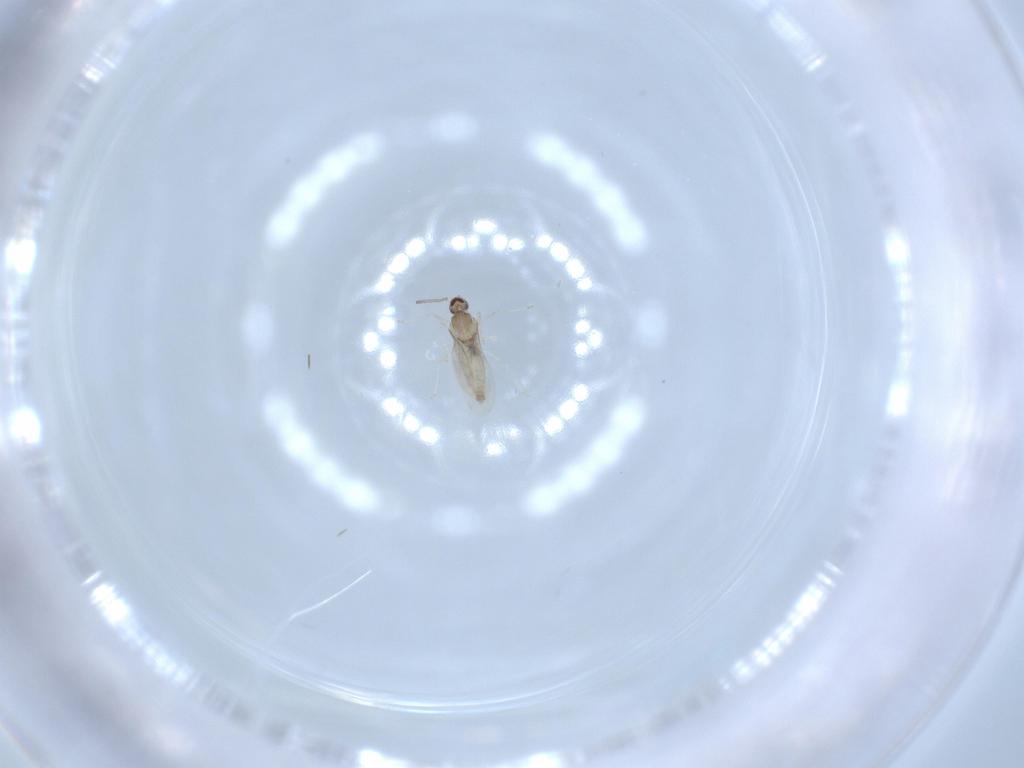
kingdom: Animalia
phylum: Arthropoda
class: Insecta
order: Diptera
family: Cecidomyiidae
